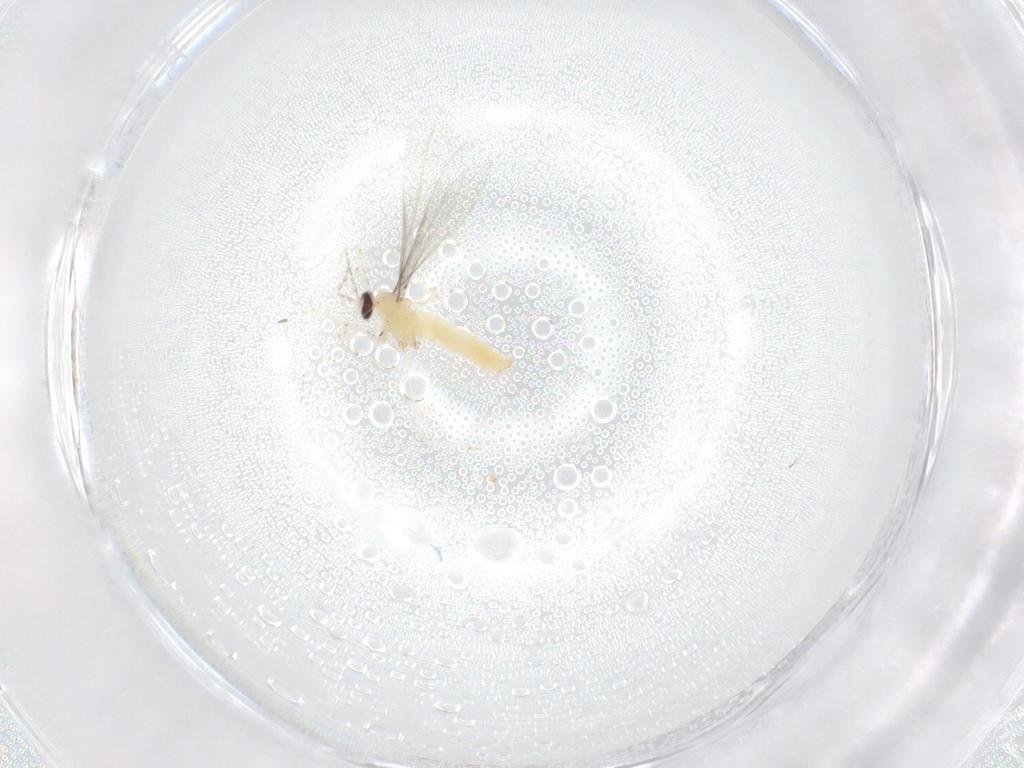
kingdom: Animalia
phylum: Arthropoda
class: Insecta
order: Diptera
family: Cecidomyiidae
